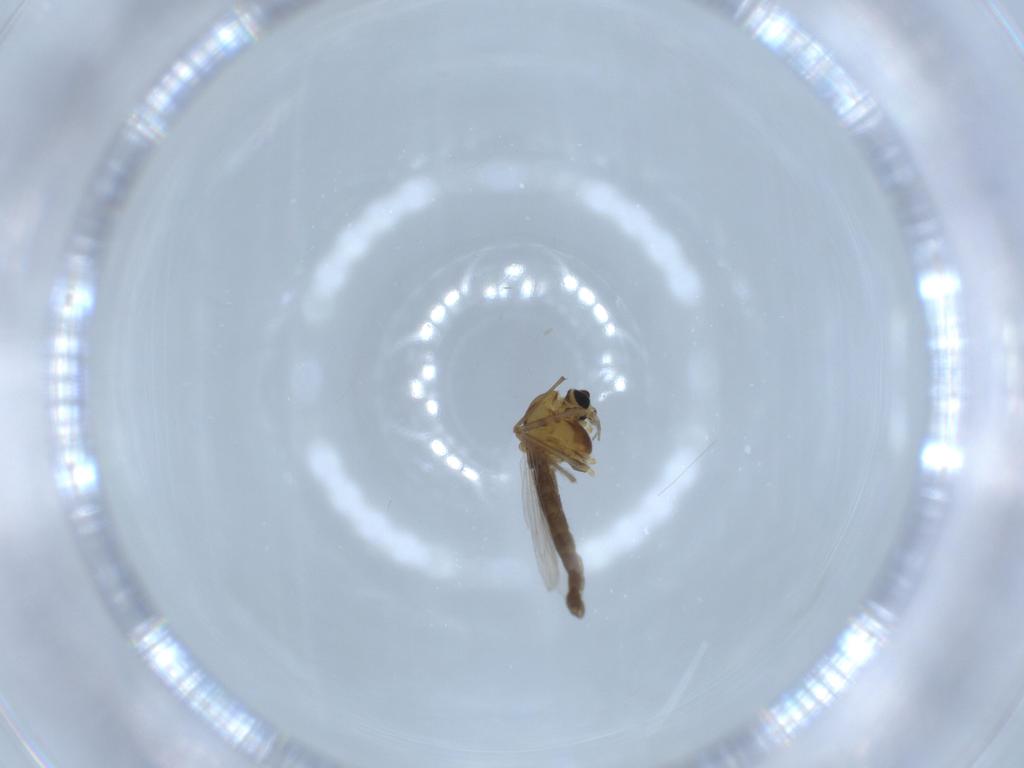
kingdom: Animalia
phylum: Arthropoda
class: Insecta
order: Diptera
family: Chironomidae
